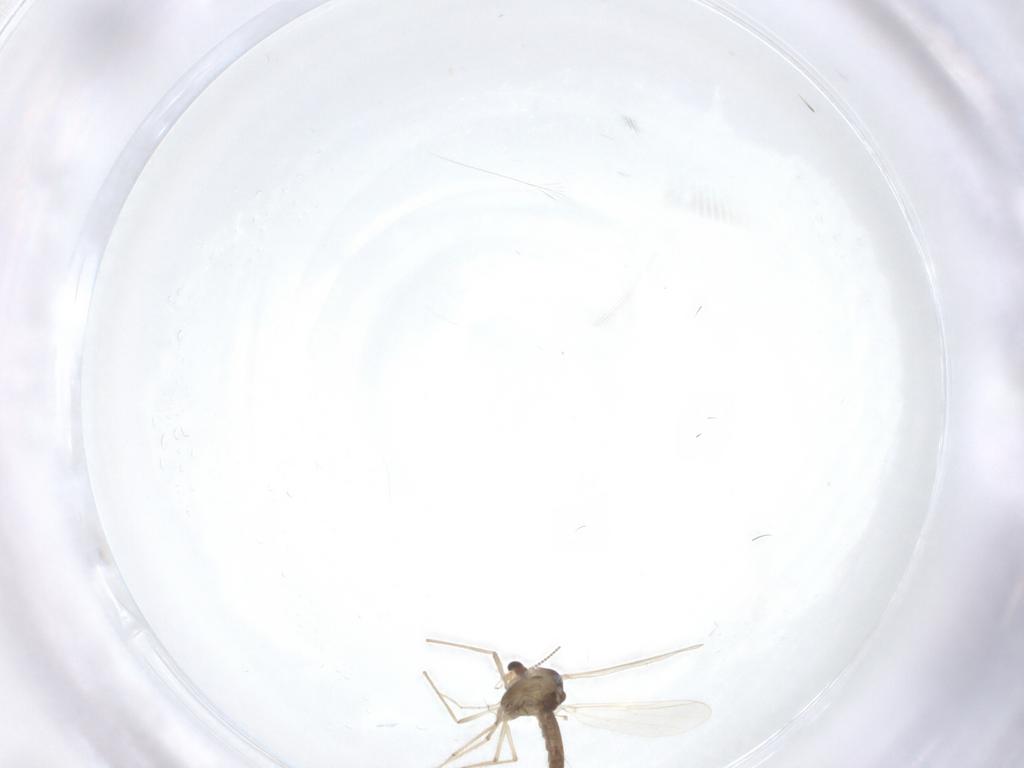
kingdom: Animalia
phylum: Arthropoda
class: Insecta
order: Diptera
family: Chironomidae
